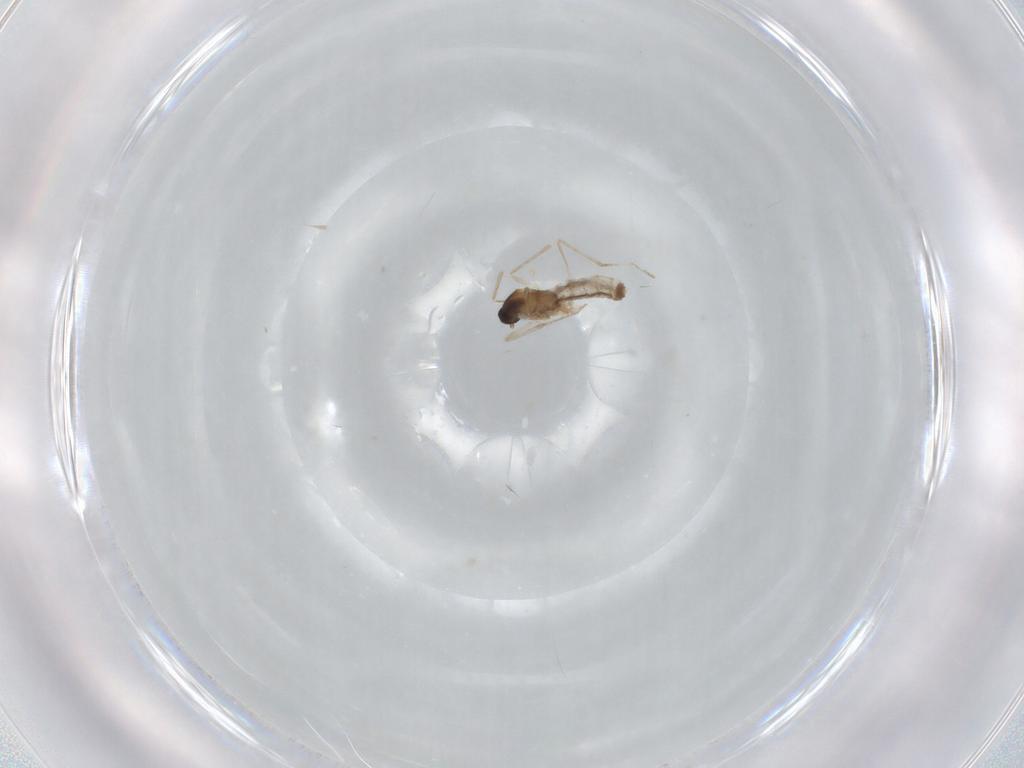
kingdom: Animalia
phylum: Arthropoda
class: Insecta
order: Diptera
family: Cecidomyiidae
